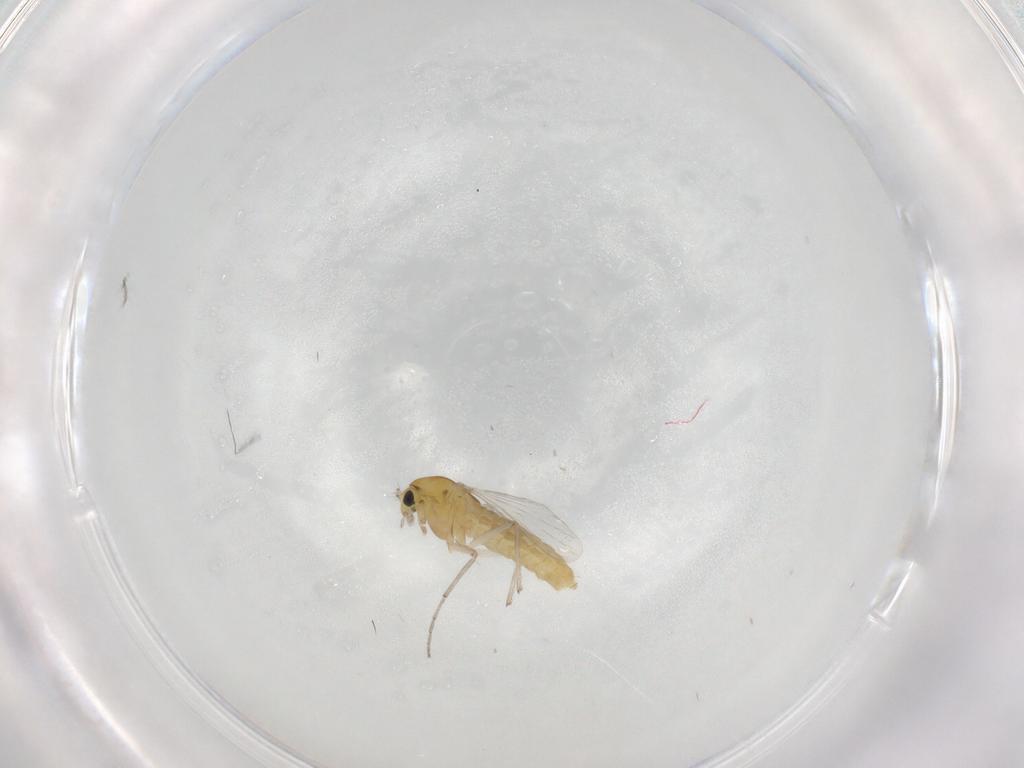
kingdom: Animalia
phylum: Arthropoda
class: Insecta
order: Diptera
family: Chironomidae
